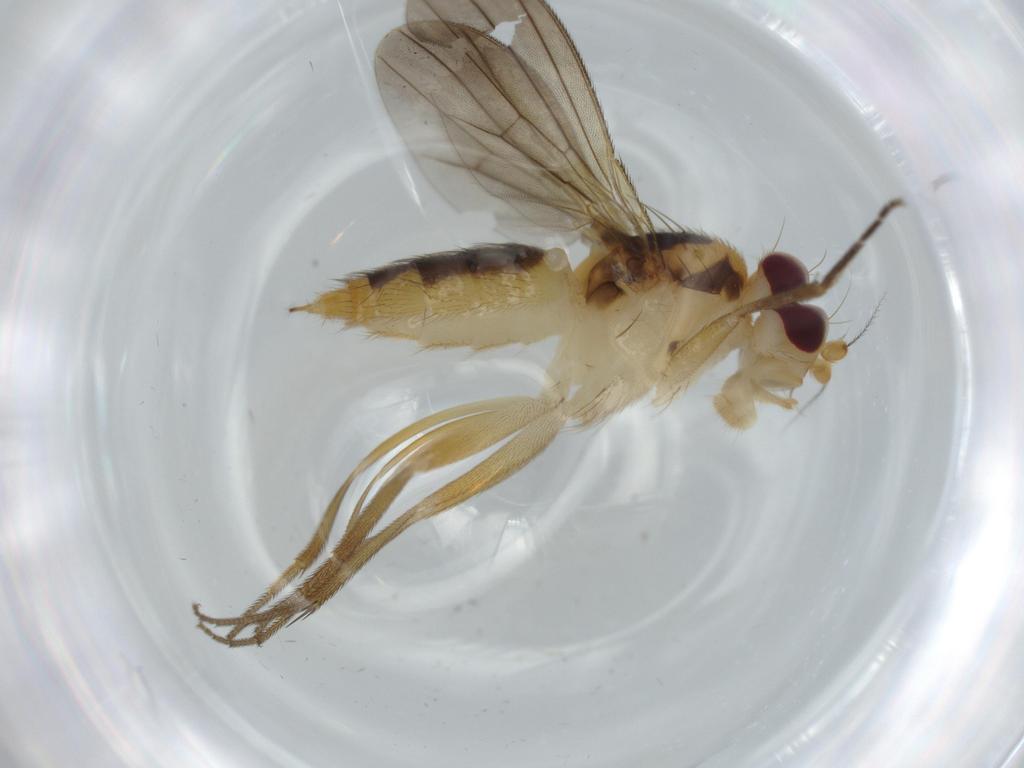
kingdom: Animalia
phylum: Arthropoda
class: Insecta
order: Diptera
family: Clusiidae
